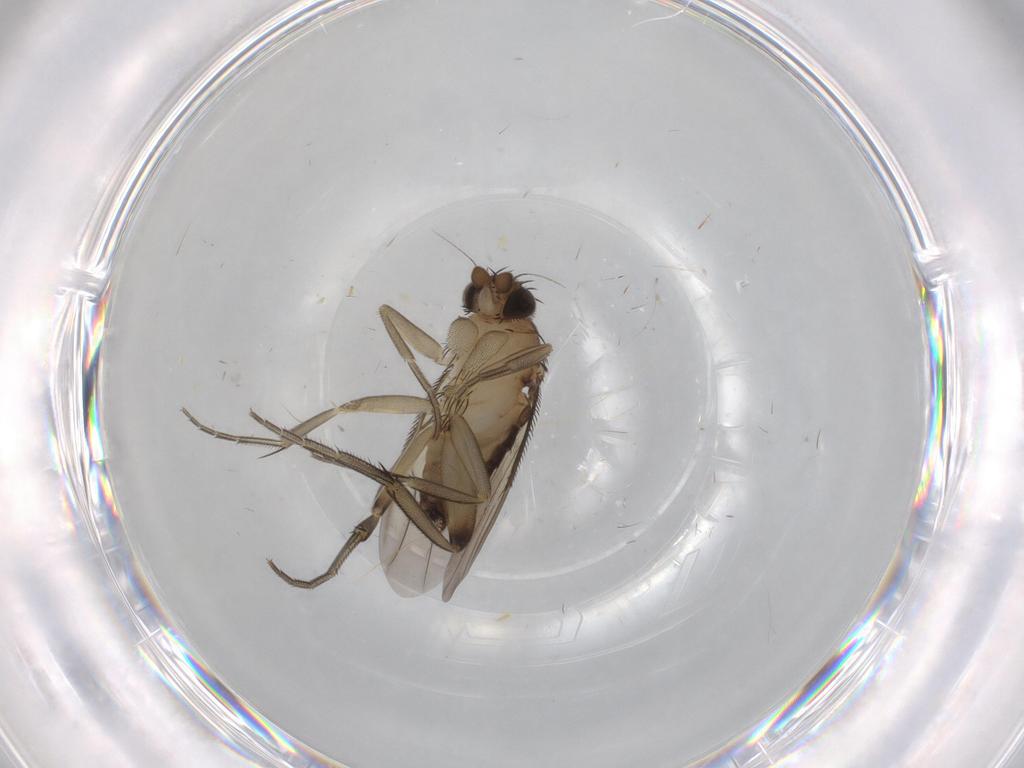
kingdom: Animalia
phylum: Arthropoda
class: Insecta
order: Diptera
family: Phoridae
